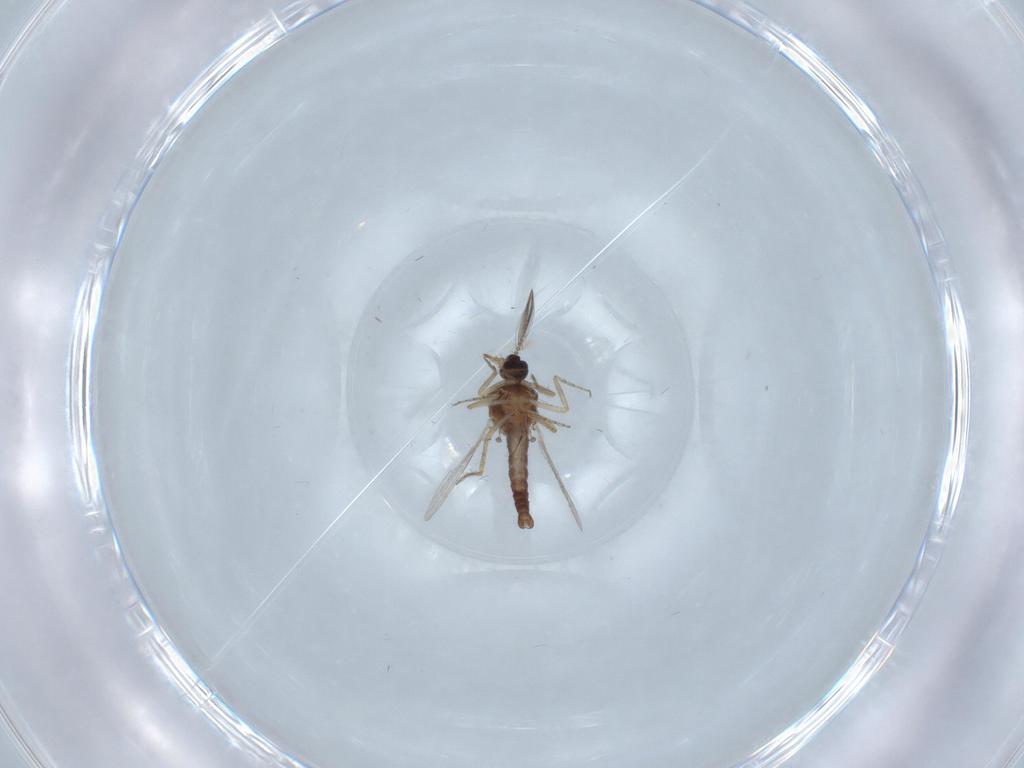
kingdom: Animalia
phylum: Arthropoda
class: Insecta
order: Diptera
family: Ceratopogonidae
